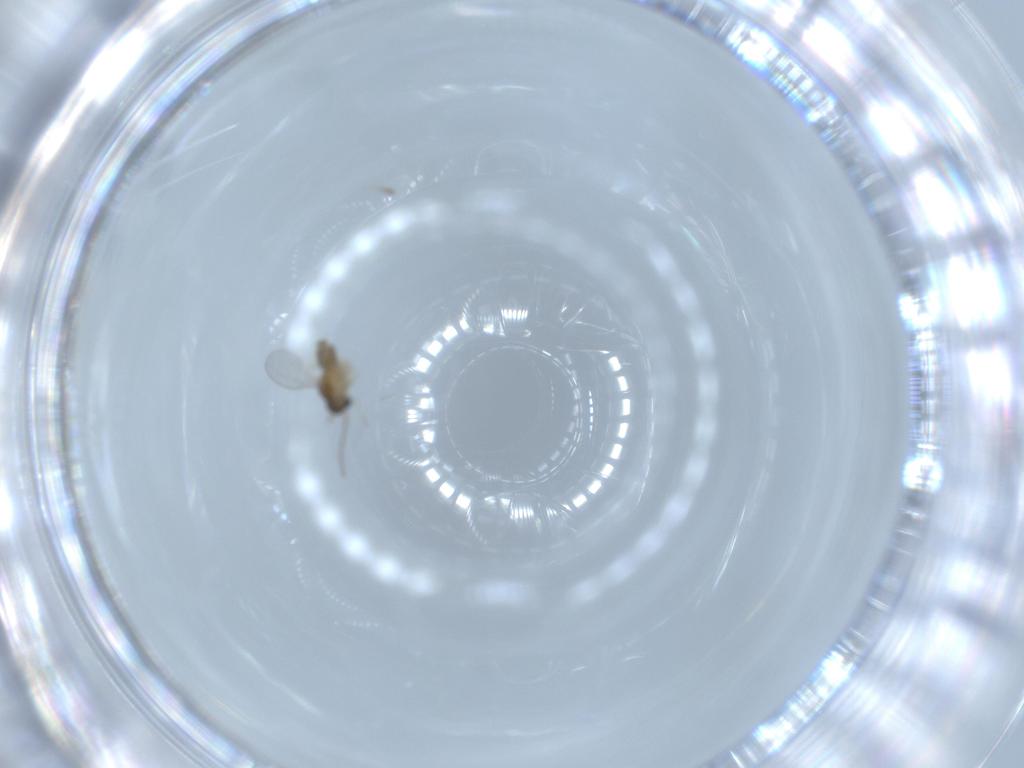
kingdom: Animalia
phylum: Arthropoda
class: Insecta
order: Diptera
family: Cecidomyiidae
